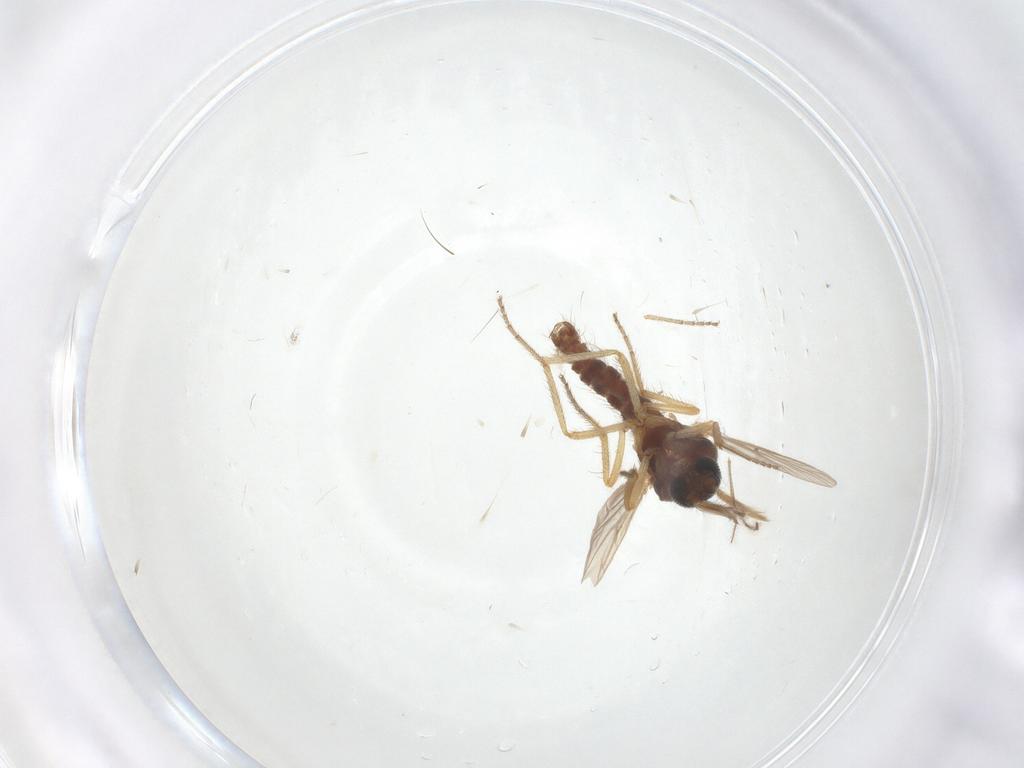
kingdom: Animalia
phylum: Arthropoda
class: Insecta
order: Diptera
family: Ceratopogonidae
